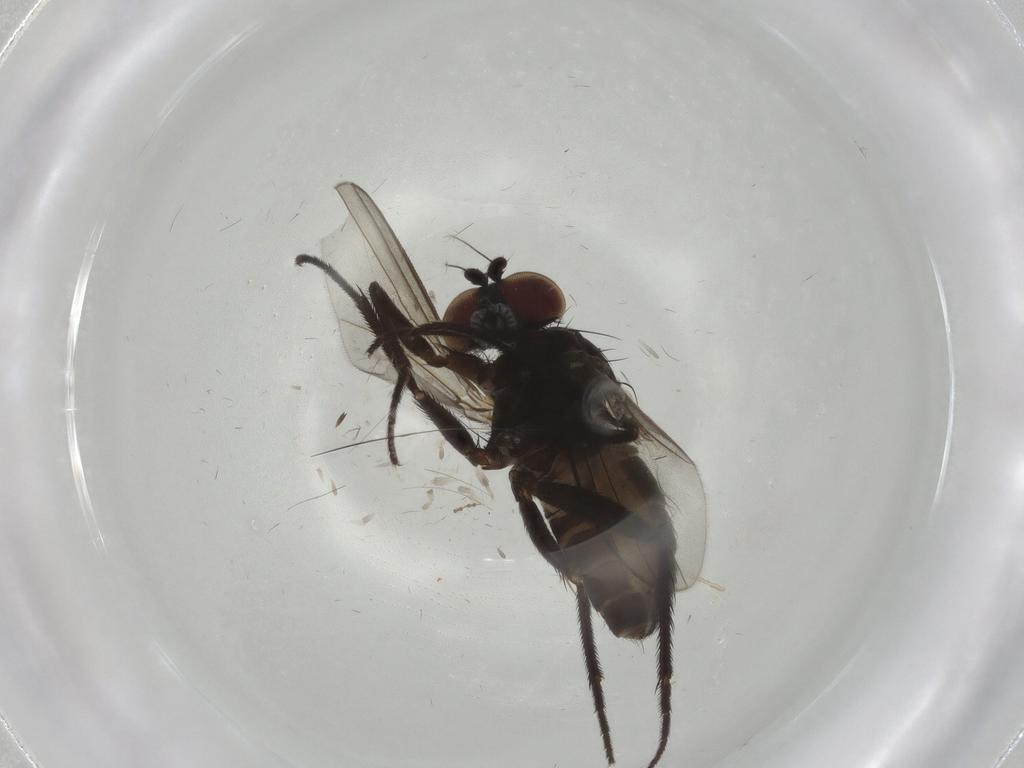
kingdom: Animalia
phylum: Arthropoda
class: Insecta
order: Diptera
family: Dolichopodidae
